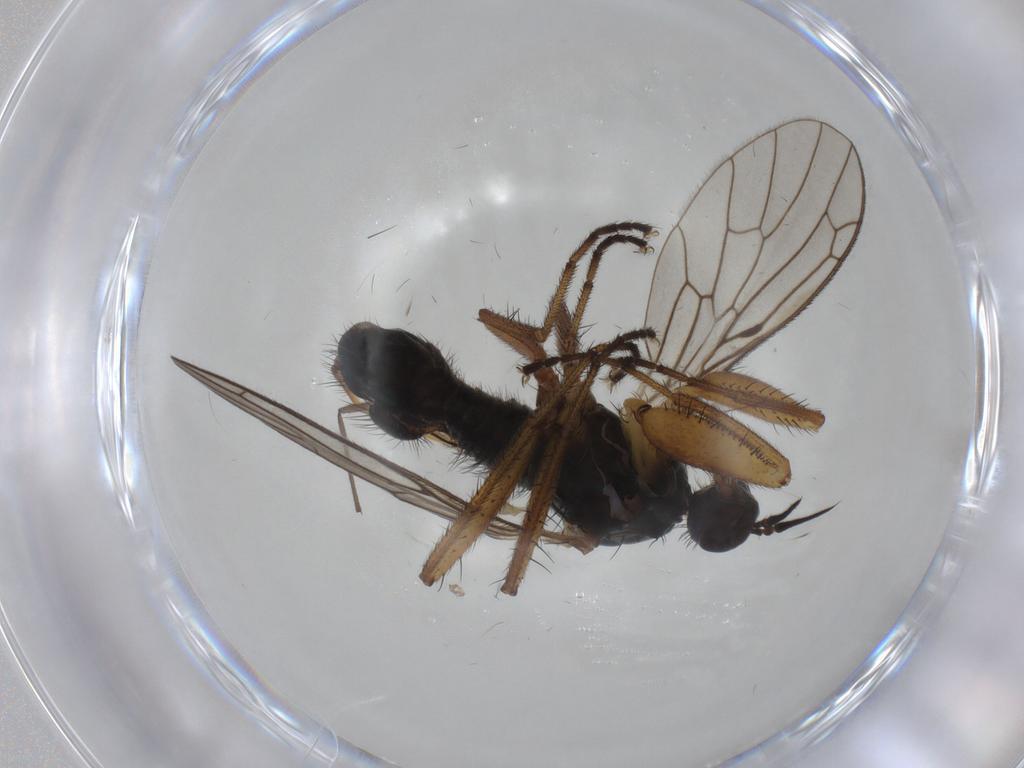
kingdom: Animalia
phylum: Arthropoda
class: Insecta
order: Diptera
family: Ceratopogonidae
